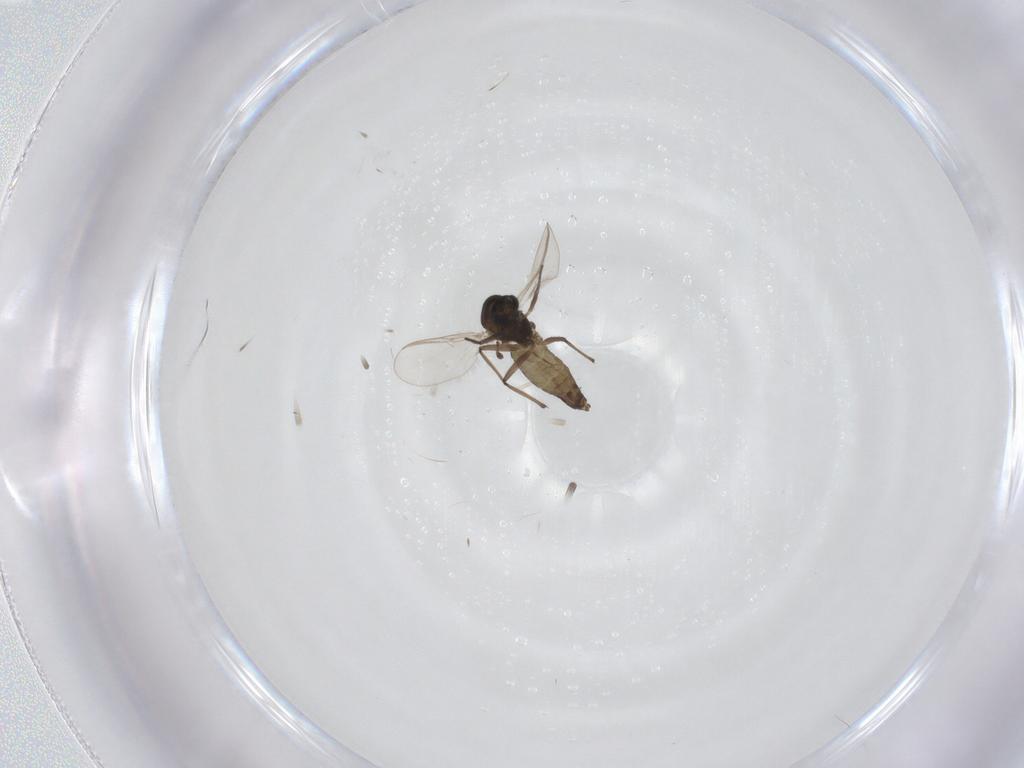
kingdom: Animalia
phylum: Arthropoda
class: Insecta
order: Diptera
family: Chironomidae
